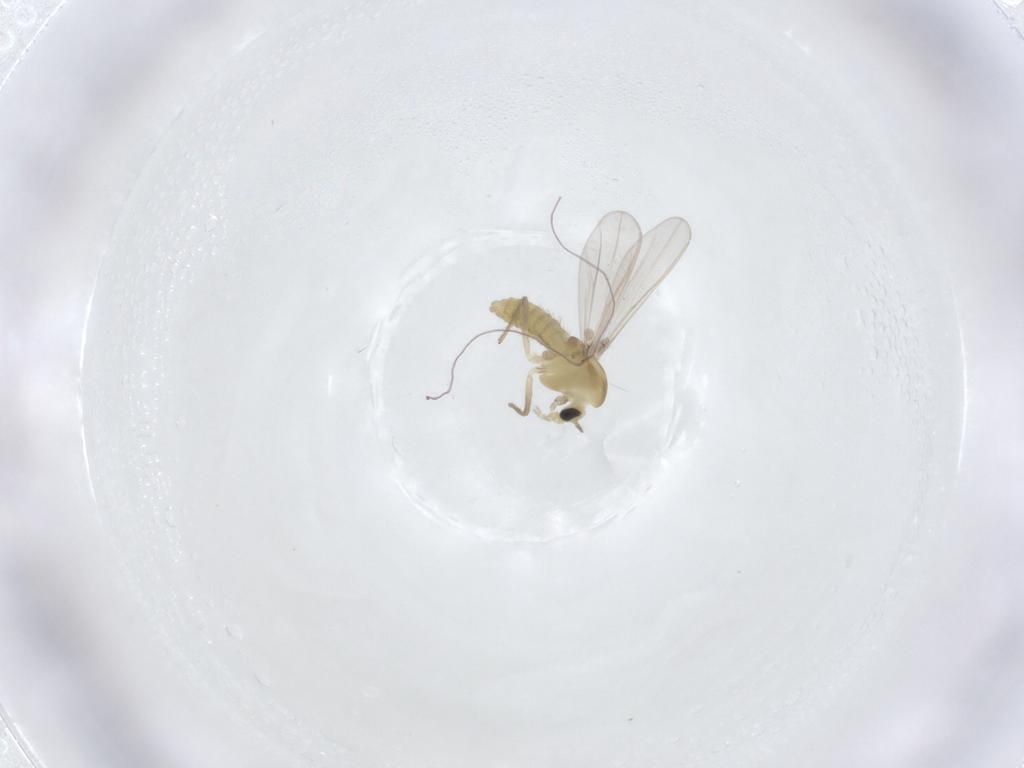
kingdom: Animalia
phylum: Arthropoda
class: Insecta
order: Diptera
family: Chironomidae
